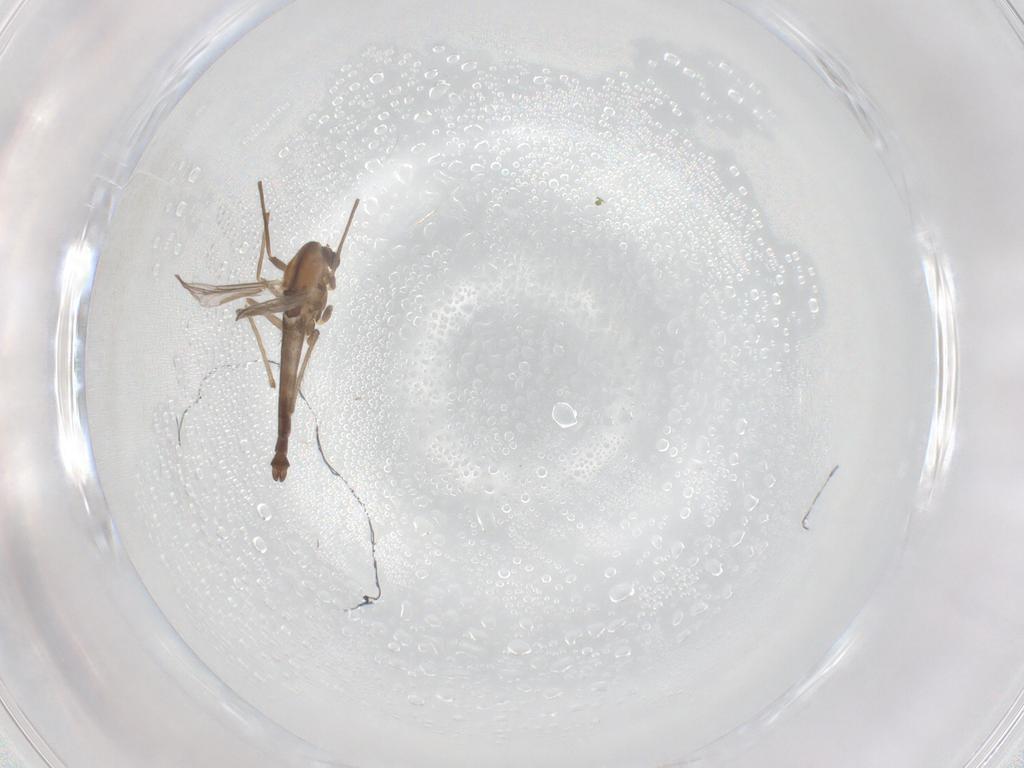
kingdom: Animalia
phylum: Arthropoda
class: Insecta
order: Diptera
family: Chironomidae
